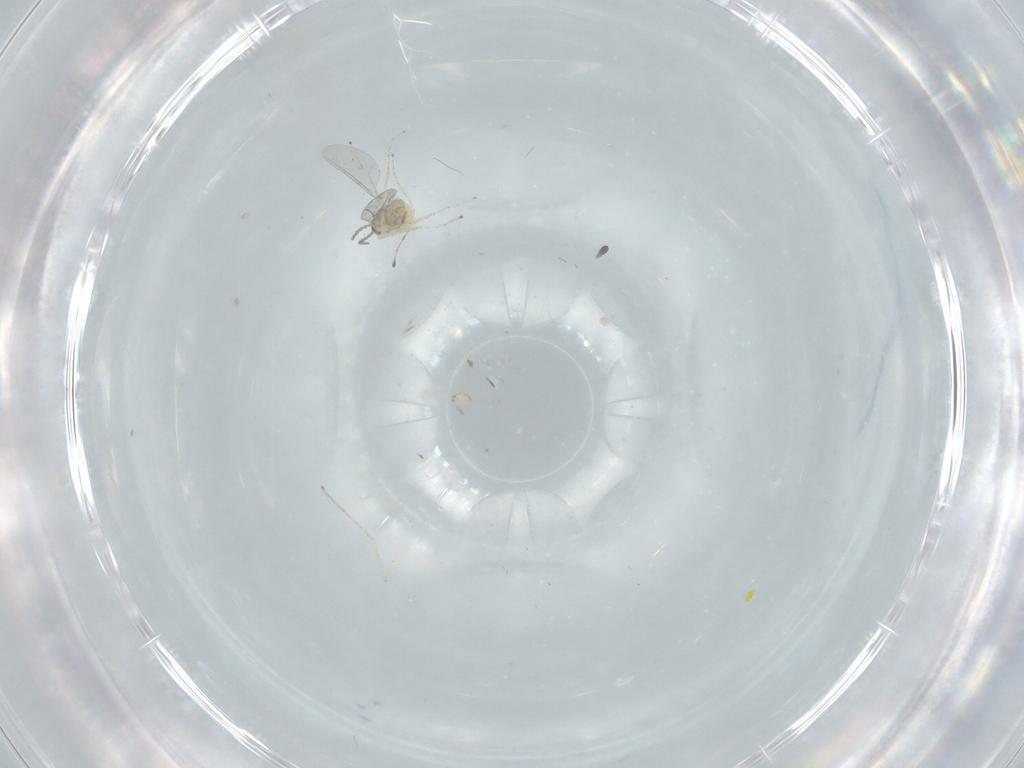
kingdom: Animalia
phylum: Arthropoda
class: Insecta
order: Diptera
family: Cecidomyiidae
